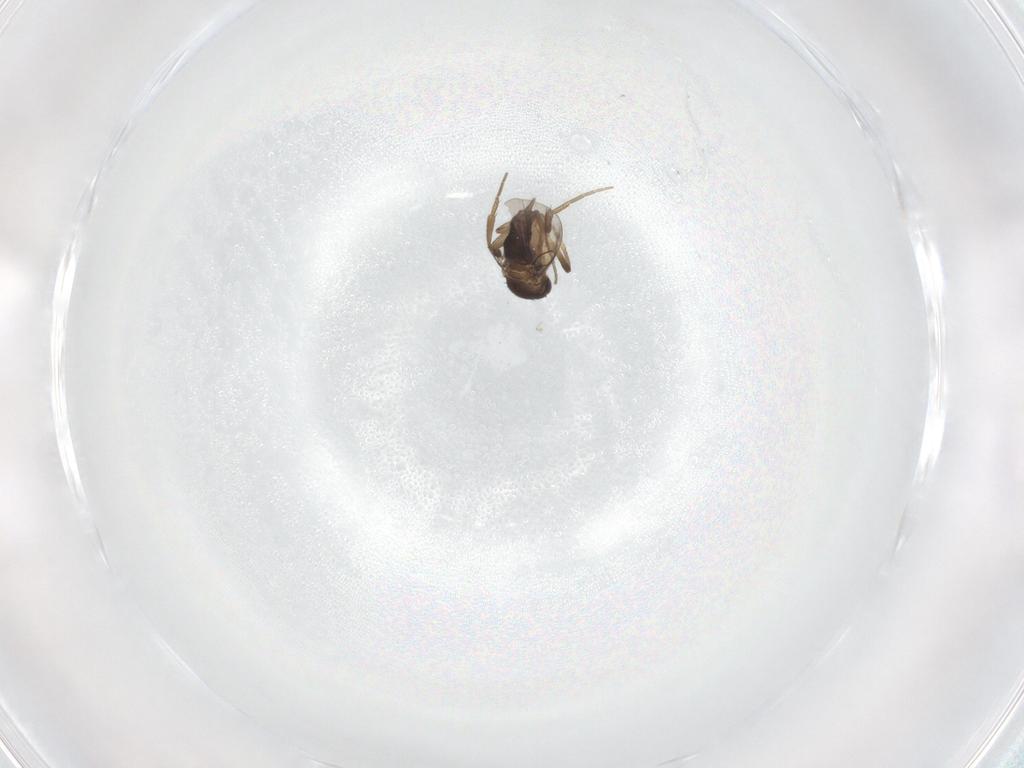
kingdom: Animalia
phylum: Arthropoda
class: Insecta
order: Diptera
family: Phoridae
